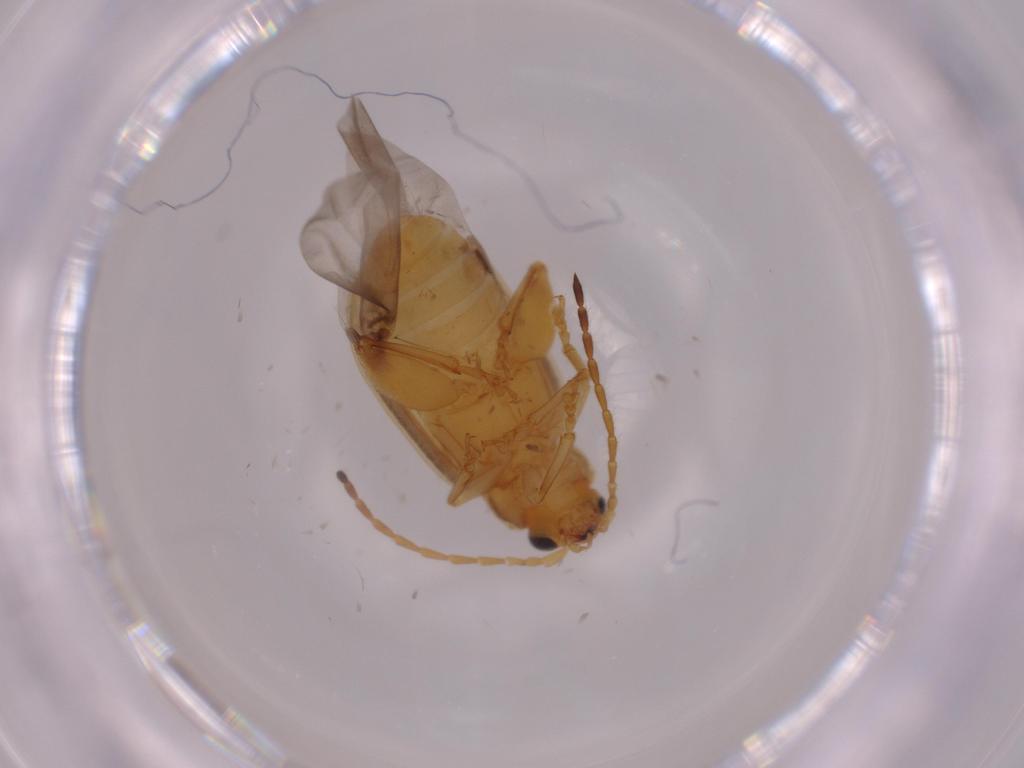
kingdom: Animalia
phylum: Arthropoda
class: Insecta
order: Coleoptera
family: Chrysomelidae
